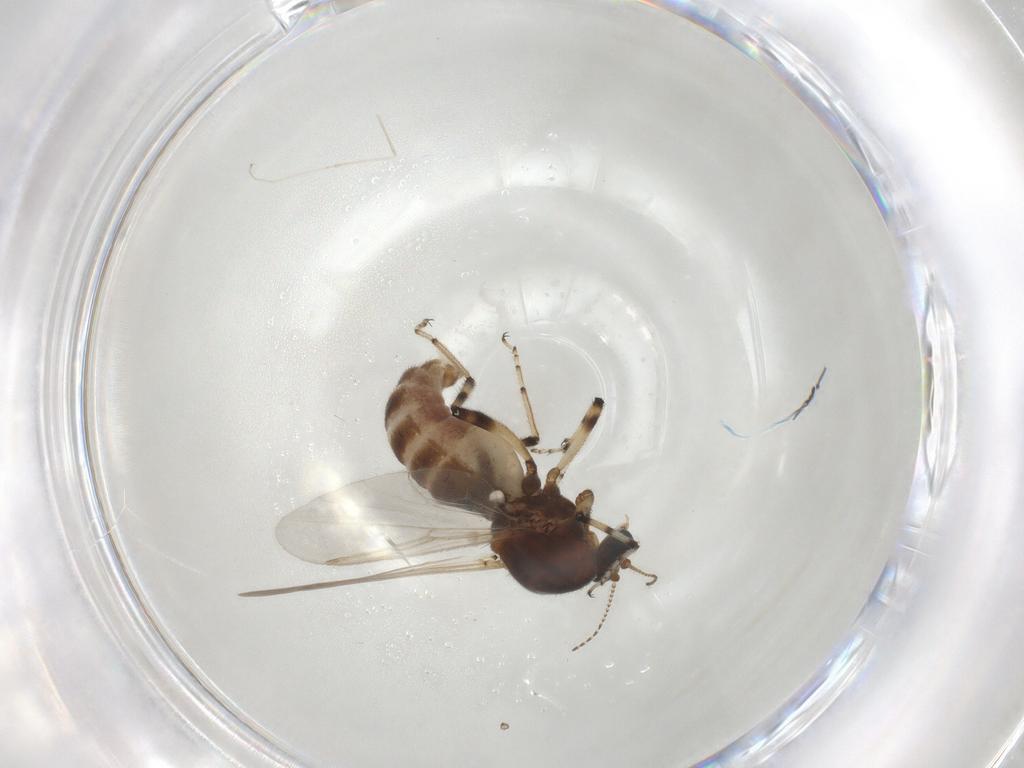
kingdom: Animalia
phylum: Arthropoda
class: Insecta
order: Diptera
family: Ceratopogonidae
